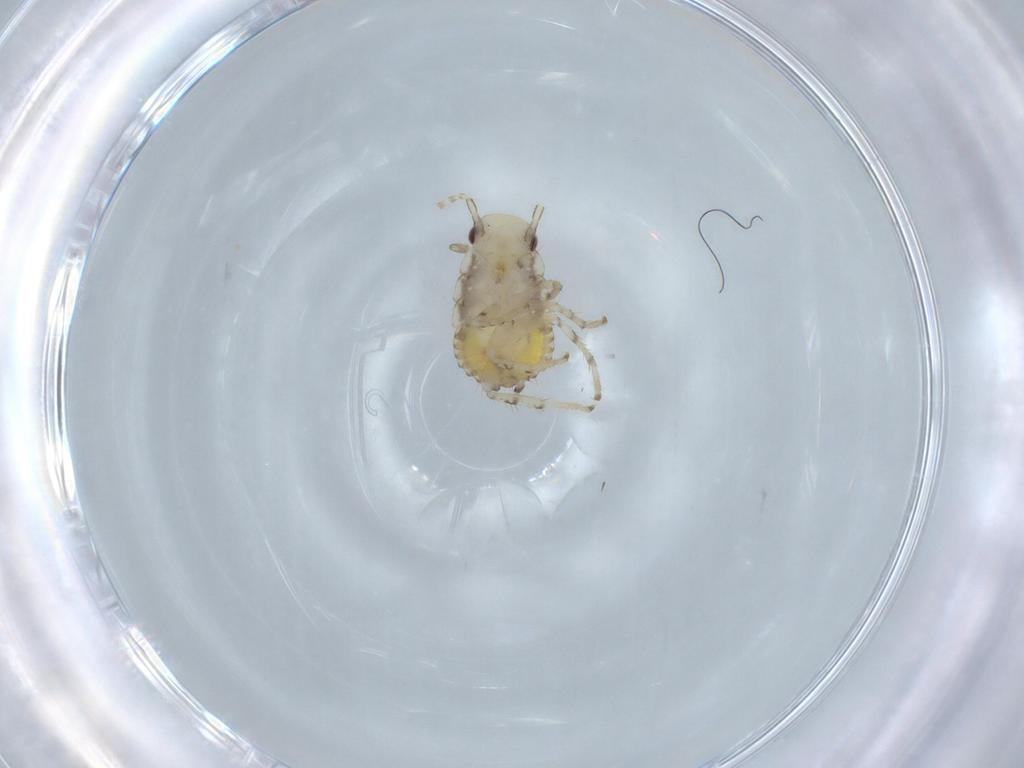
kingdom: Animalia
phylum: Arthropoda
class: Insecta
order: Blattodea
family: Ectobiidae
